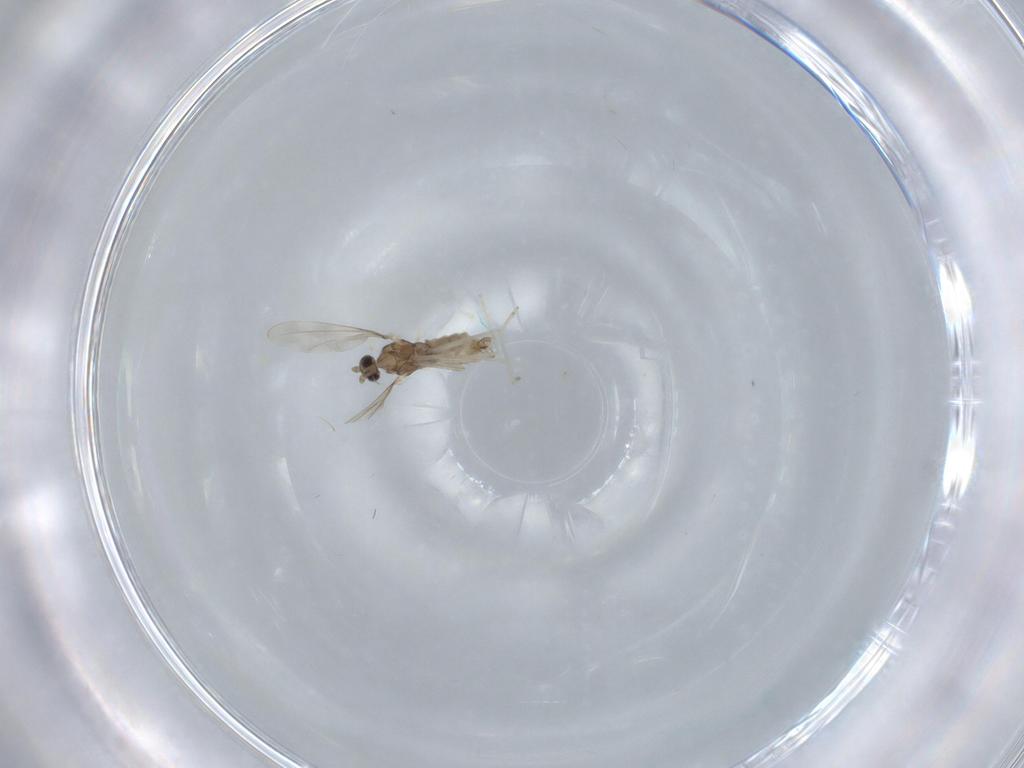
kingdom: Animalia
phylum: Arthropoda
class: Insecta
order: Diptera
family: Cecidomyiidae
